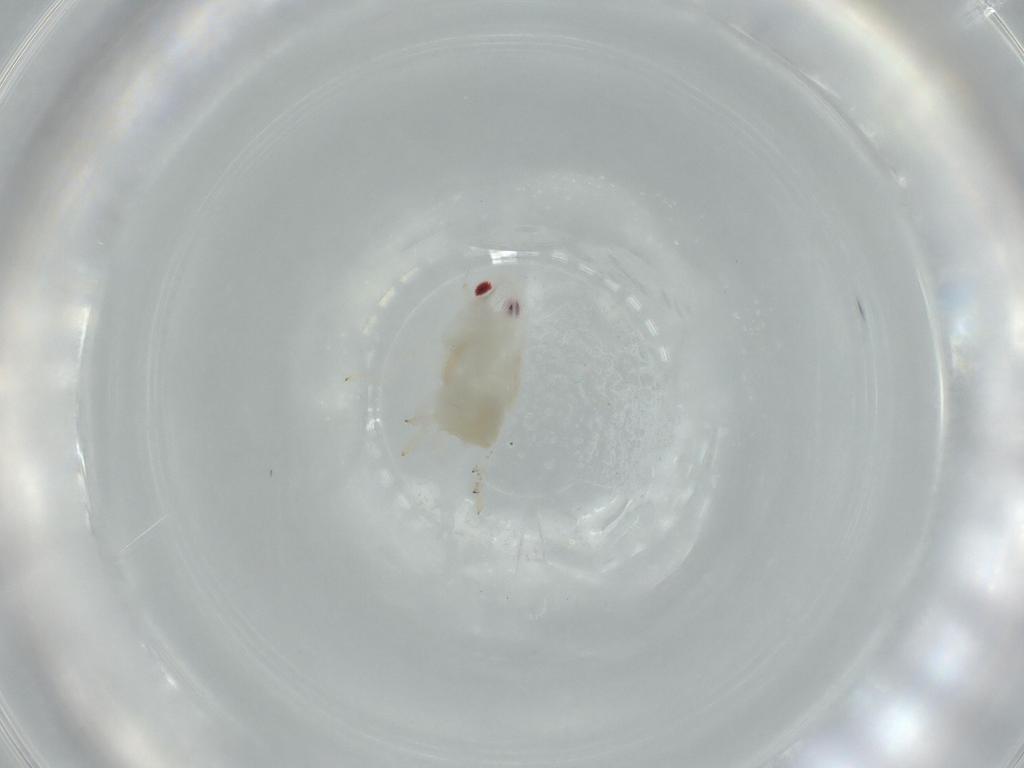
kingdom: Animalia
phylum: Arthropoda
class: Insecta
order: Hemiptera
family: Flatidae
